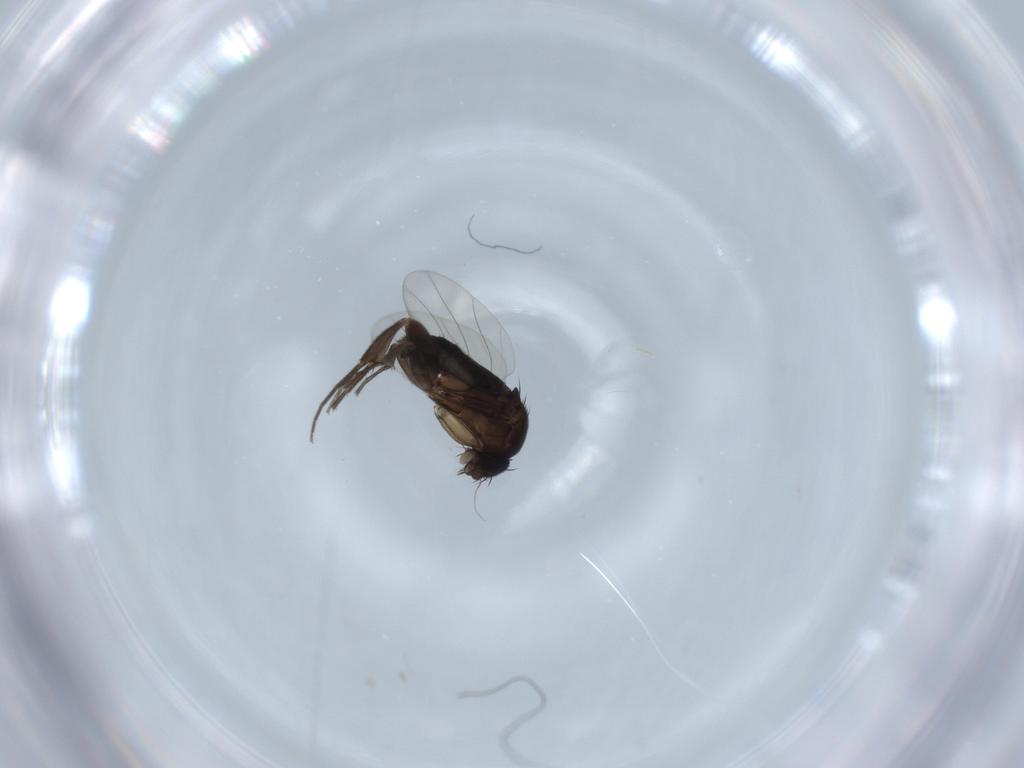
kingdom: Animalia
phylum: Arthropoda
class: Insecta
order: Diptera
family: Phoridae
